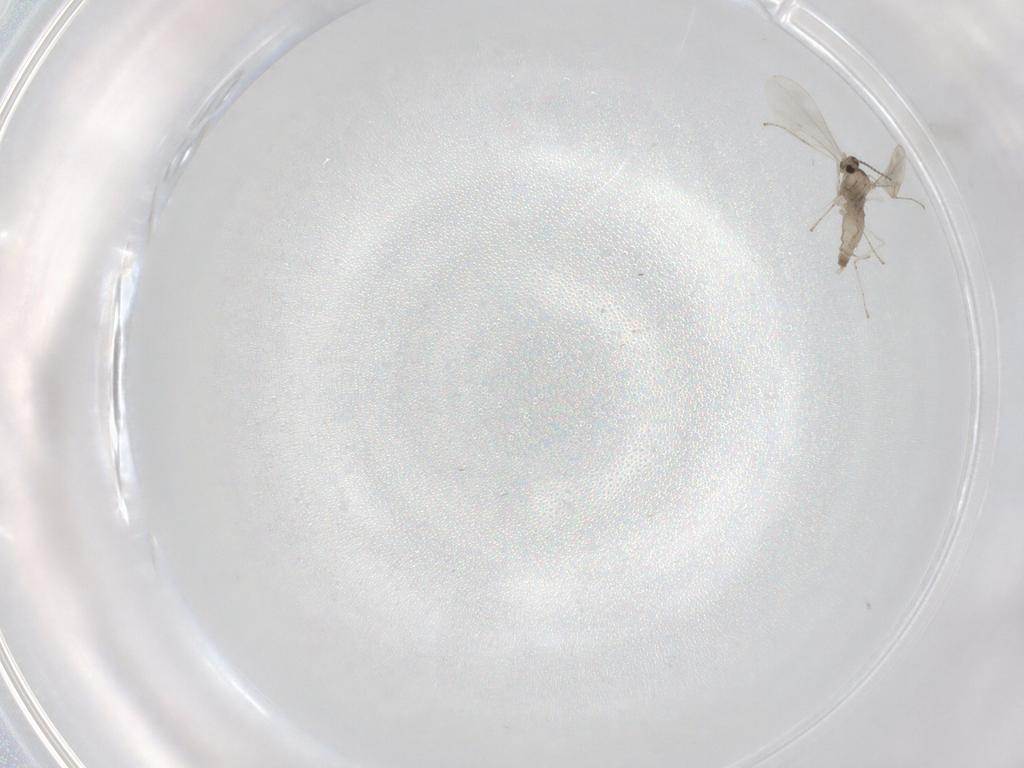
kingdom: Animalia
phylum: Arthropoda
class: Insecta
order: Diptera
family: Cecidomyiidae
